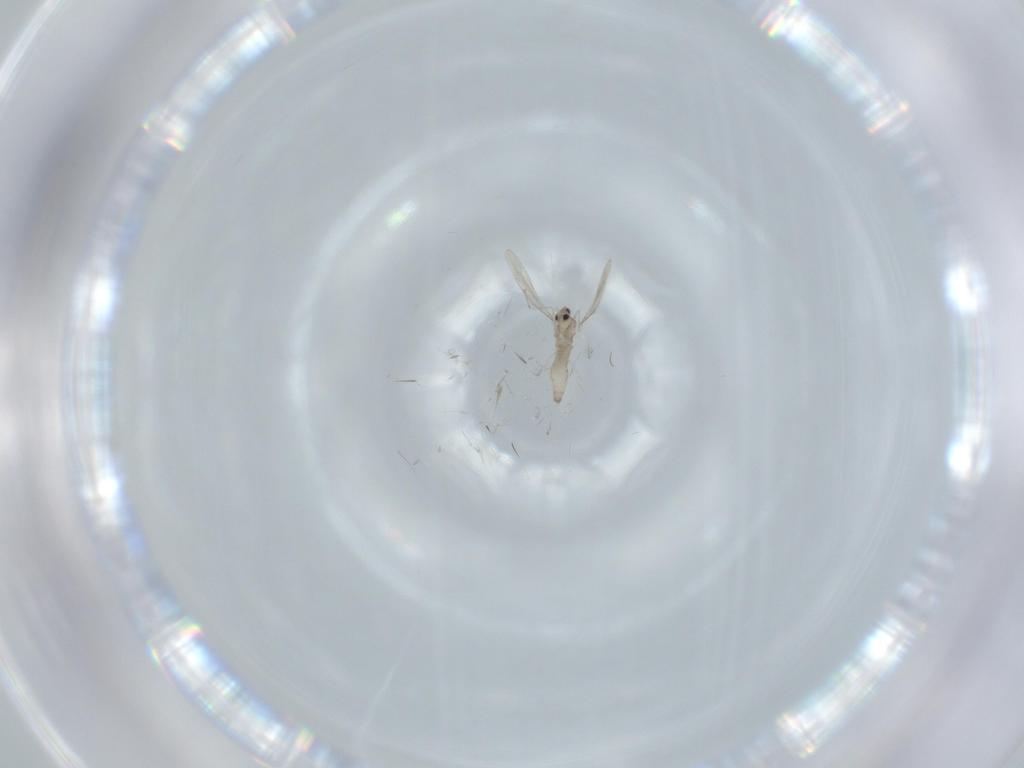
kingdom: Animalia
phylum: Arthropoda
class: Insecta
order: Diptera
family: Cecidomyiidae
